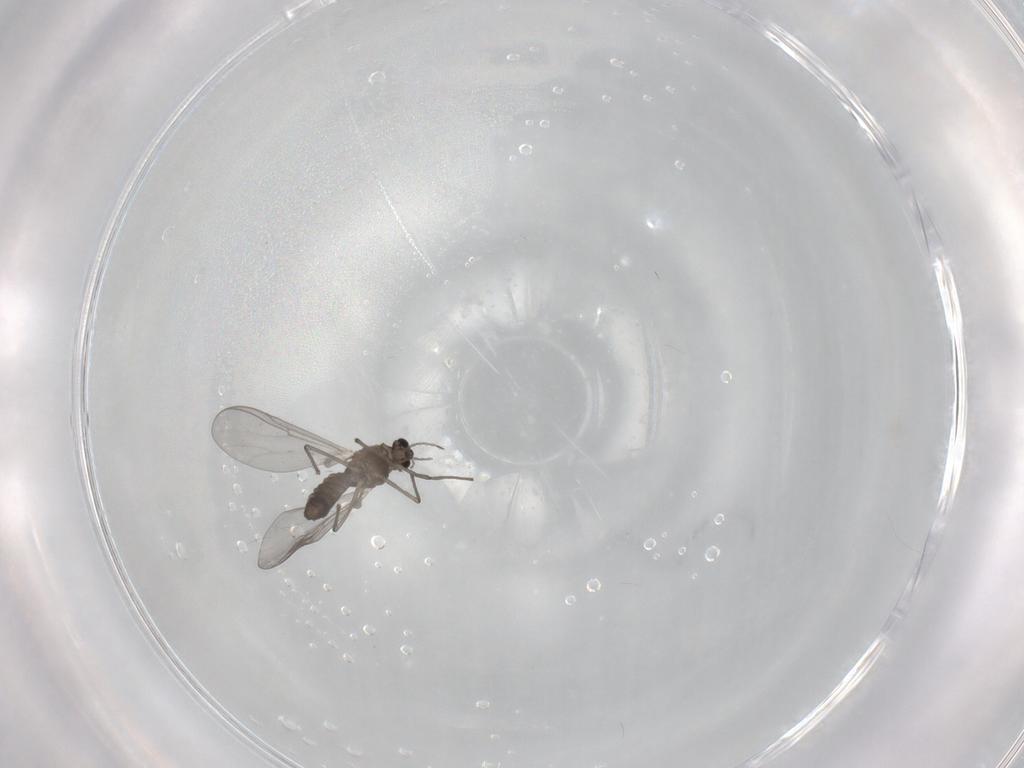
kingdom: Animalia
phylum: Arthropoda
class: Insecta
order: Diptera
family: Chironomidae
